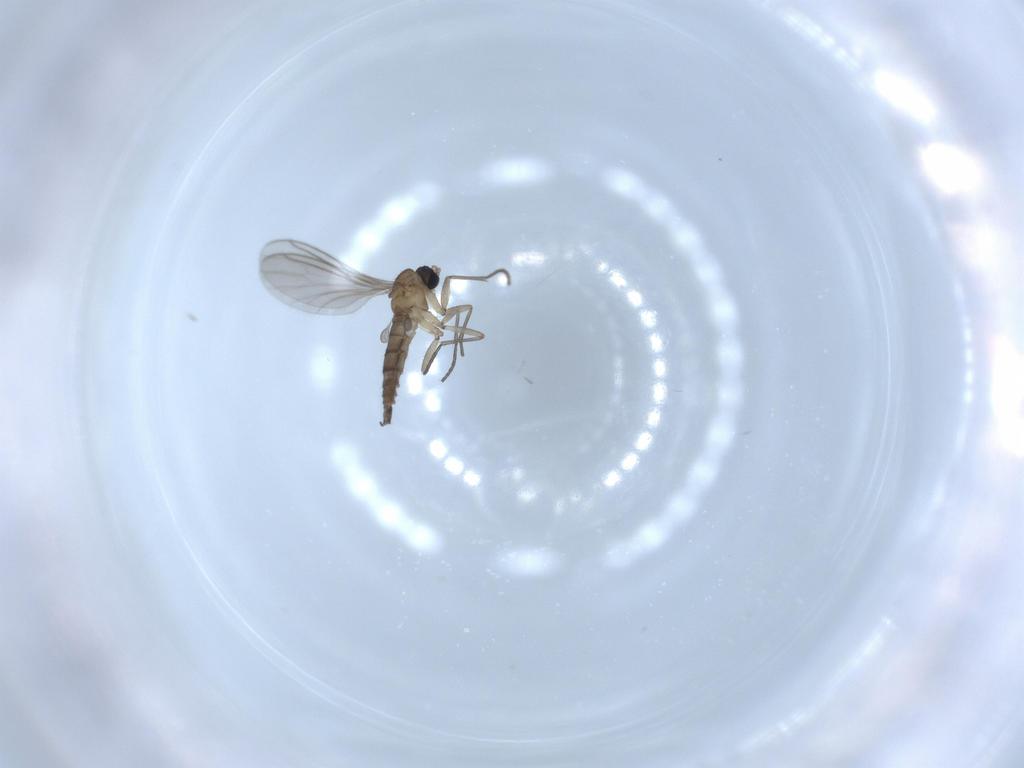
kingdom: Animalia
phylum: Arthropoda
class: Insecta
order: Diptera
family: Sciaridae
